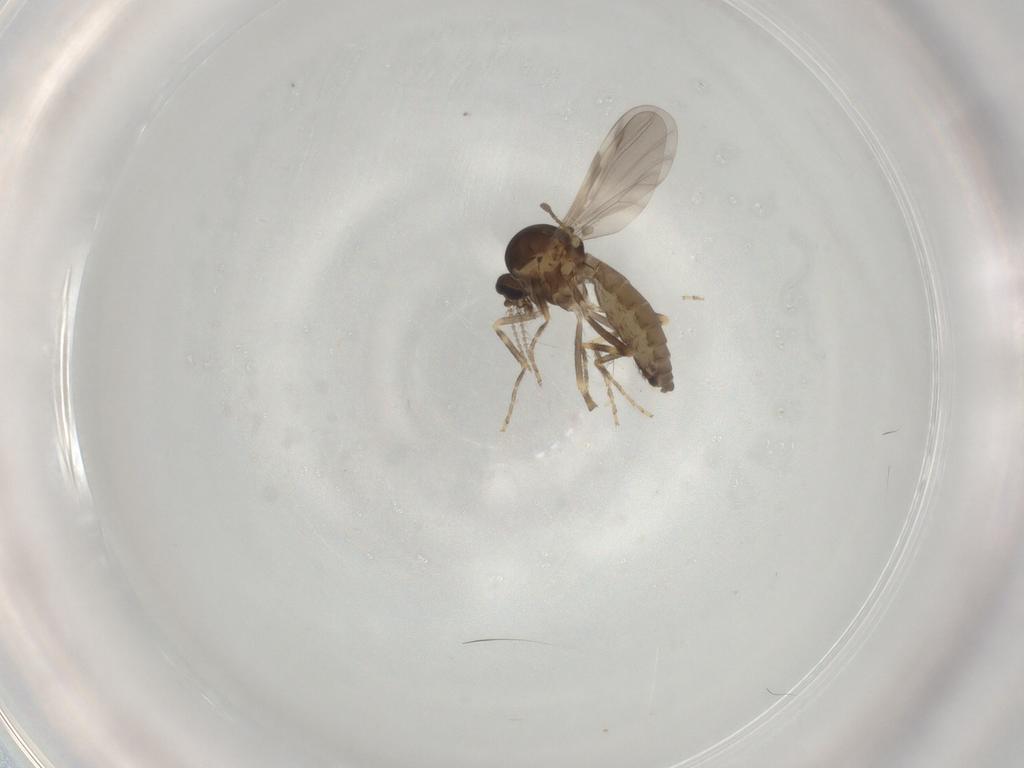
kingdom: Animalia
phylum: Arthropoda
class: Insecta
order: Diptera
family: Ceratopogonidae
